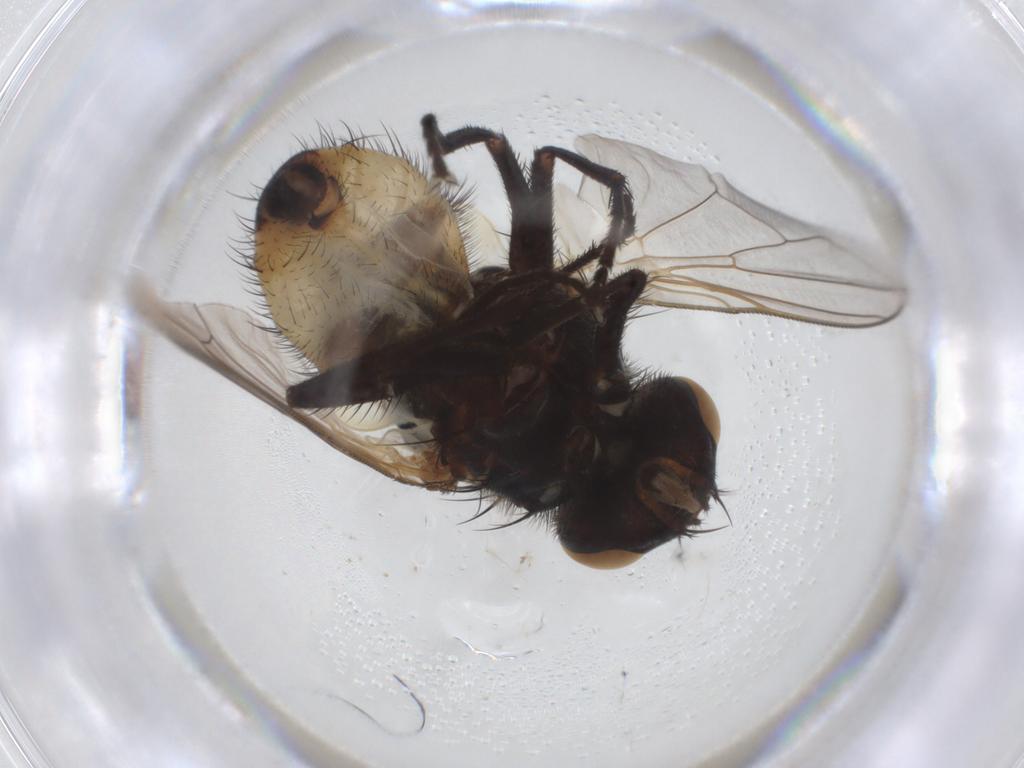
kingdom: Animalia
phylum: Arthropoda
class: Insecta
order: Diptera
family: Muscidae
